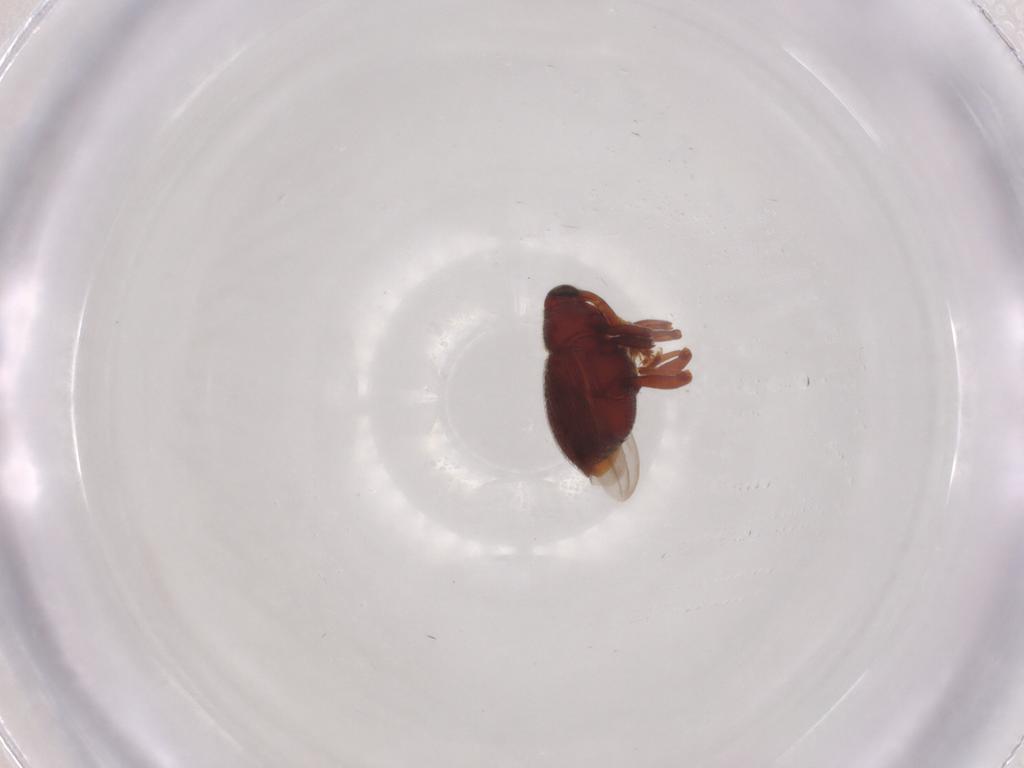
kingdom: Animalia
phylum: Arthropoda
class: Insecta
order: Coleoptera
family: Curculionidae
